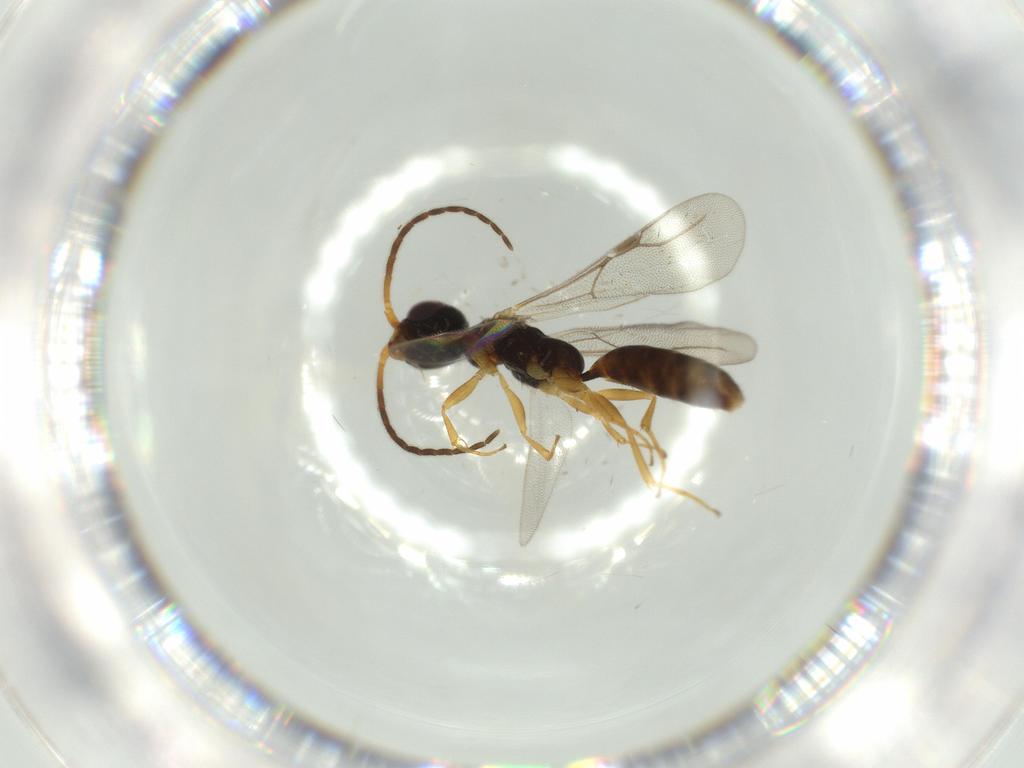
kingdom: Animalia
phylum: Arthropoda
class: Insecta
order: Hymenoptera
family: Bethylidae
